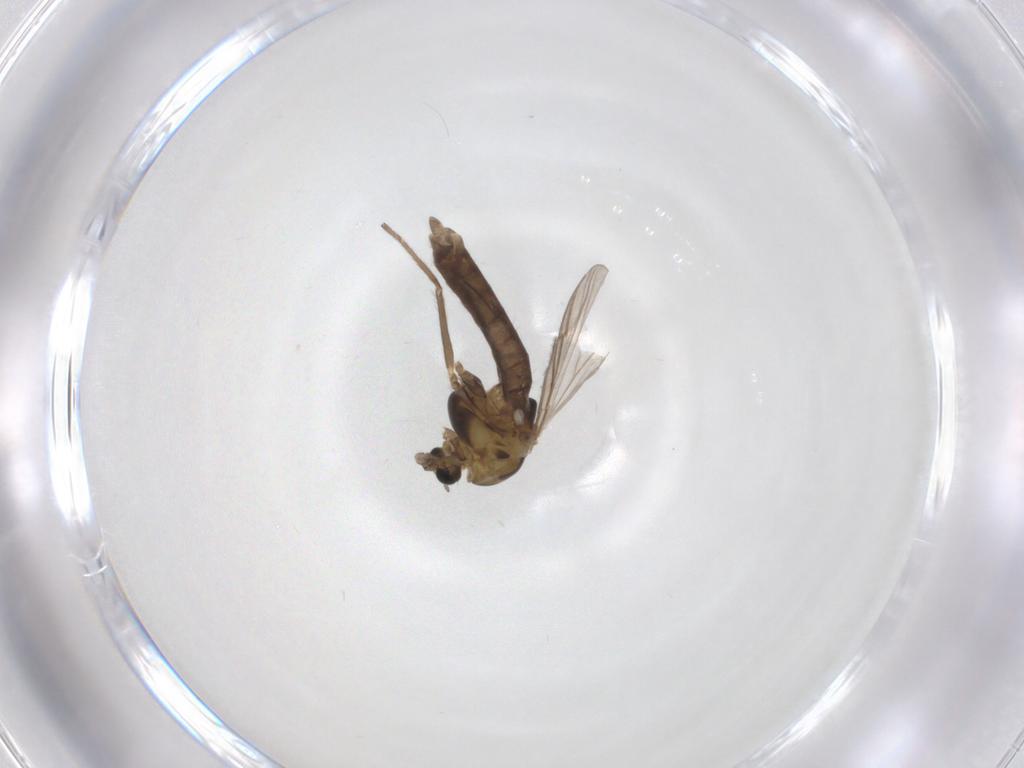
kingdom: Animalia
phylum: Arthropoda
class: Insecta
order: Diptera
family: Chironomidae
